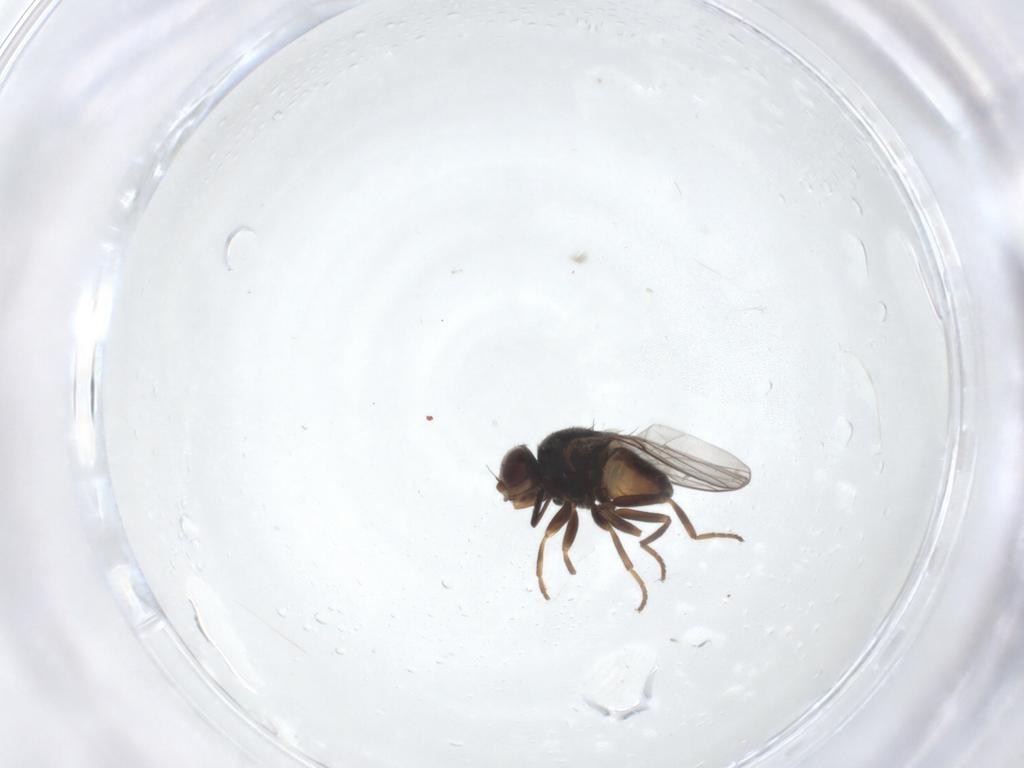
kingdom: Animalia
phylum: Arthropoda
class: Insecta
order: Diptera
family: Chloropidae
